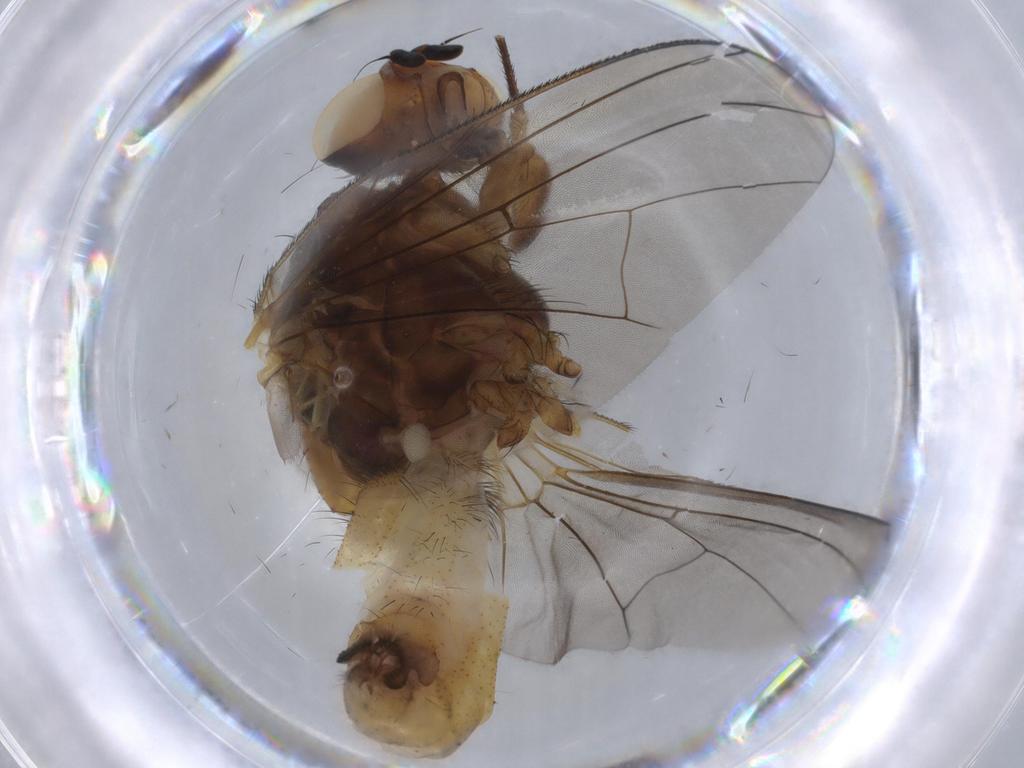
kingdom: Animalia
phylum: Arthropoda
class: Insecta
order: Diptera
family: Anthomyiidae
